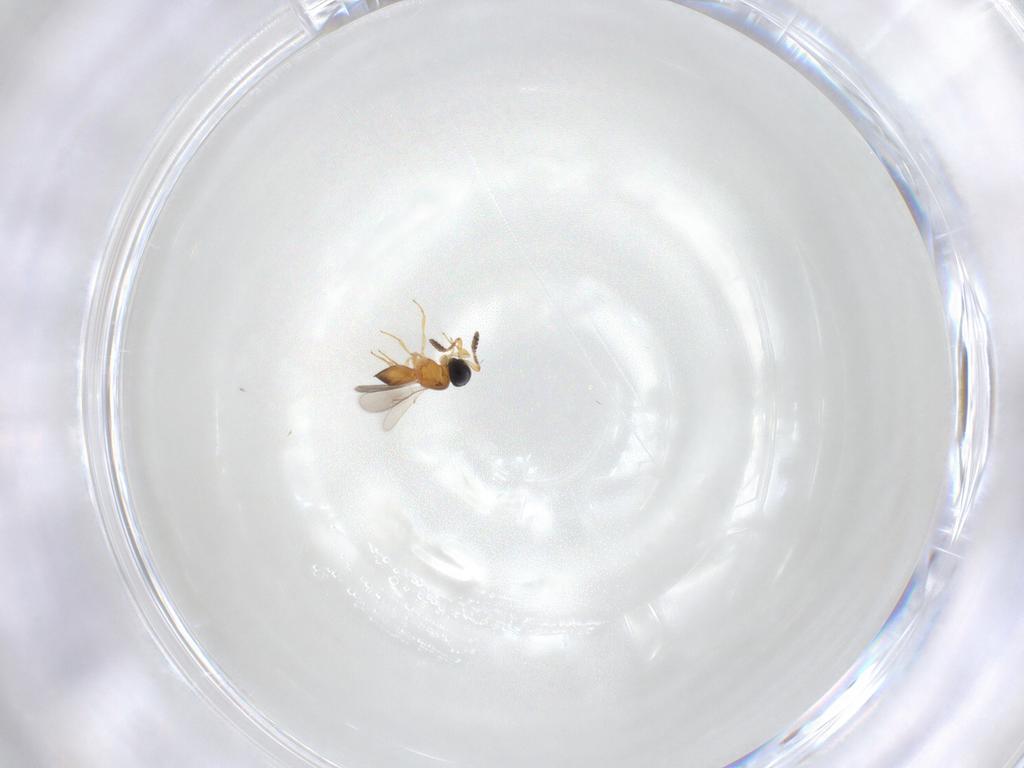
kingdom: Animalia
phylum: Arthropoda
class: Insecta
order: Hymenoptera
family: Scelionidae
